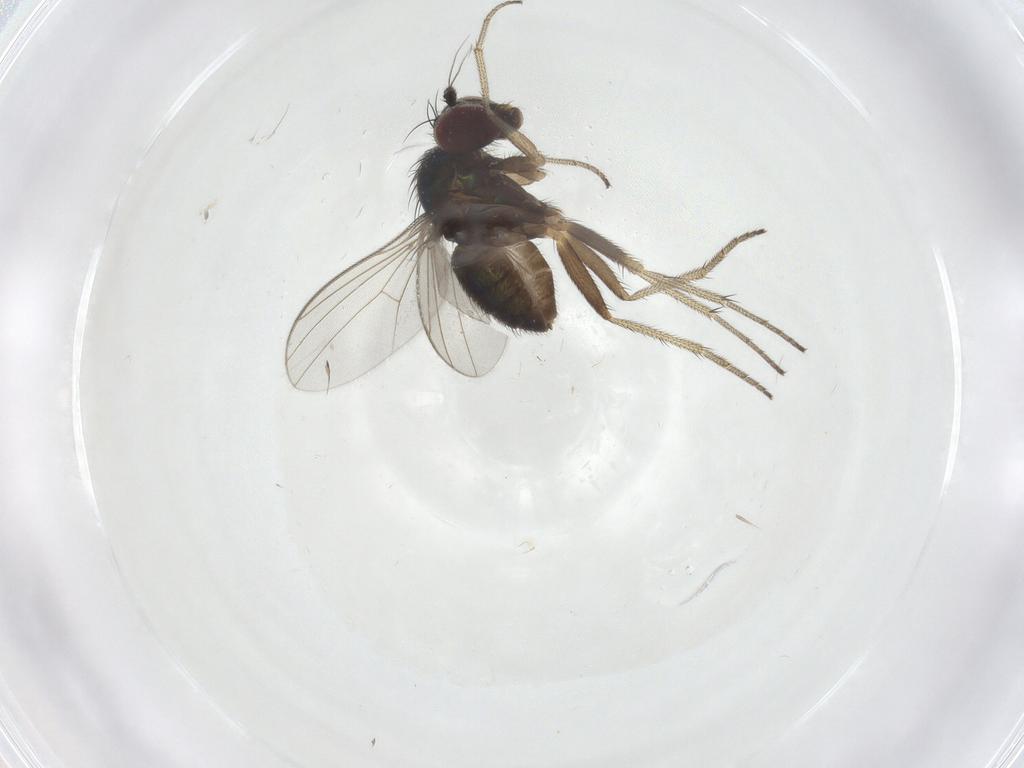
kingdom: Animalia
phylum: Arthropoda
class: Insecta
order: Diptera
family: Dolichopodidae
